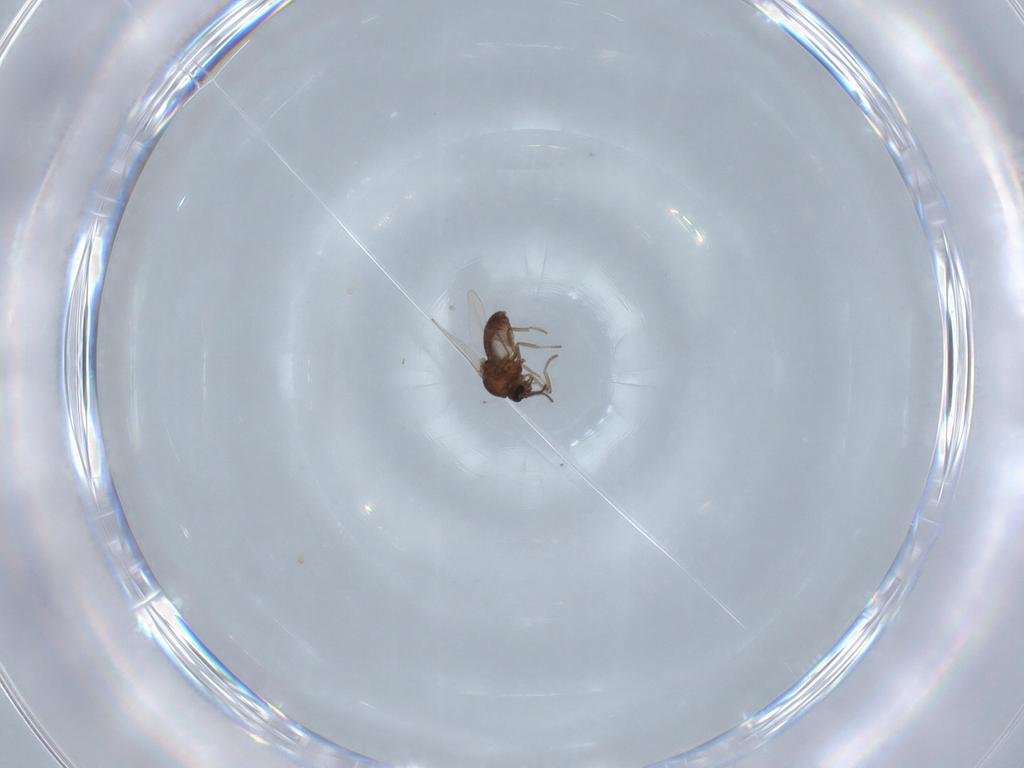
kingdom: Animalia
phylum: Arthropoda
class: Insecta
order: Diptera
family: Ceratopogonidae
